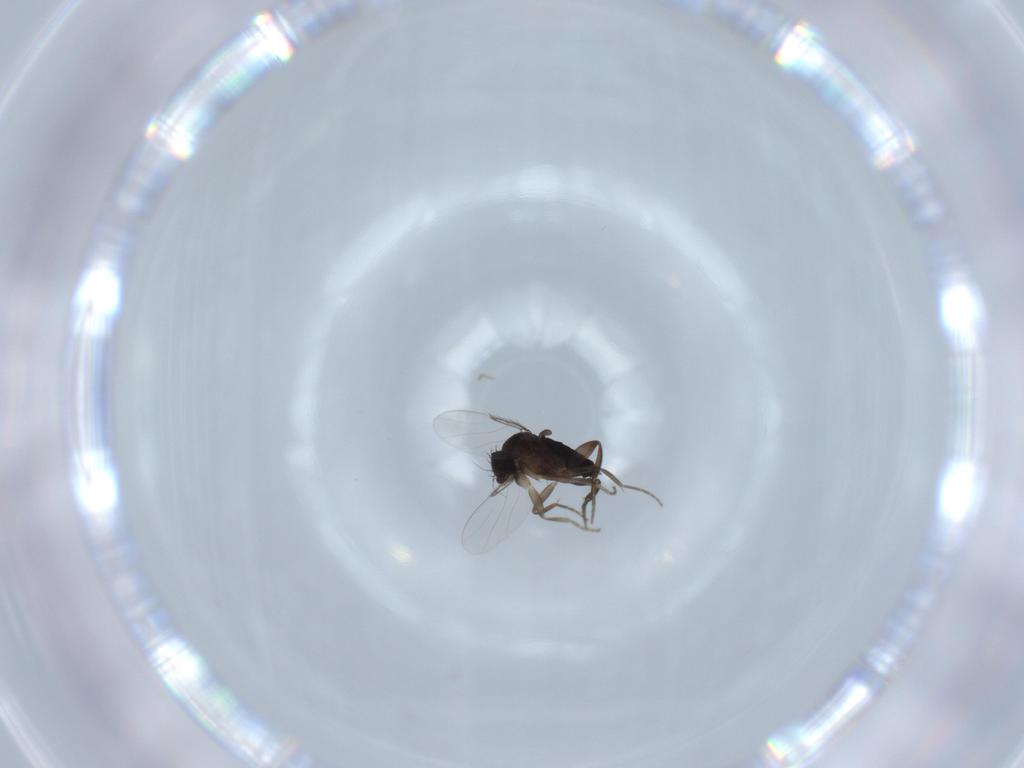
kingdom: Animalia
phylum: Arthropoda
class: Insecta
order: Diptera
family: Phoridae
